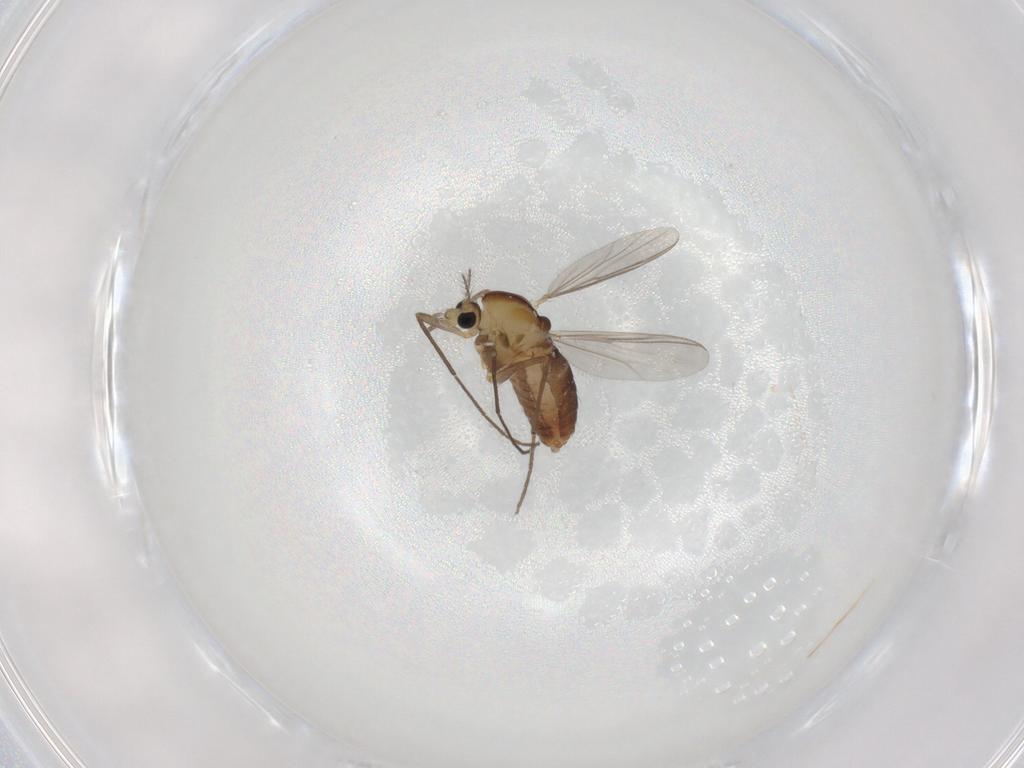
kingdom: Animalia
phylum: Arthropoda
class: Insecta
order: Diptera
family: Chironomidae
